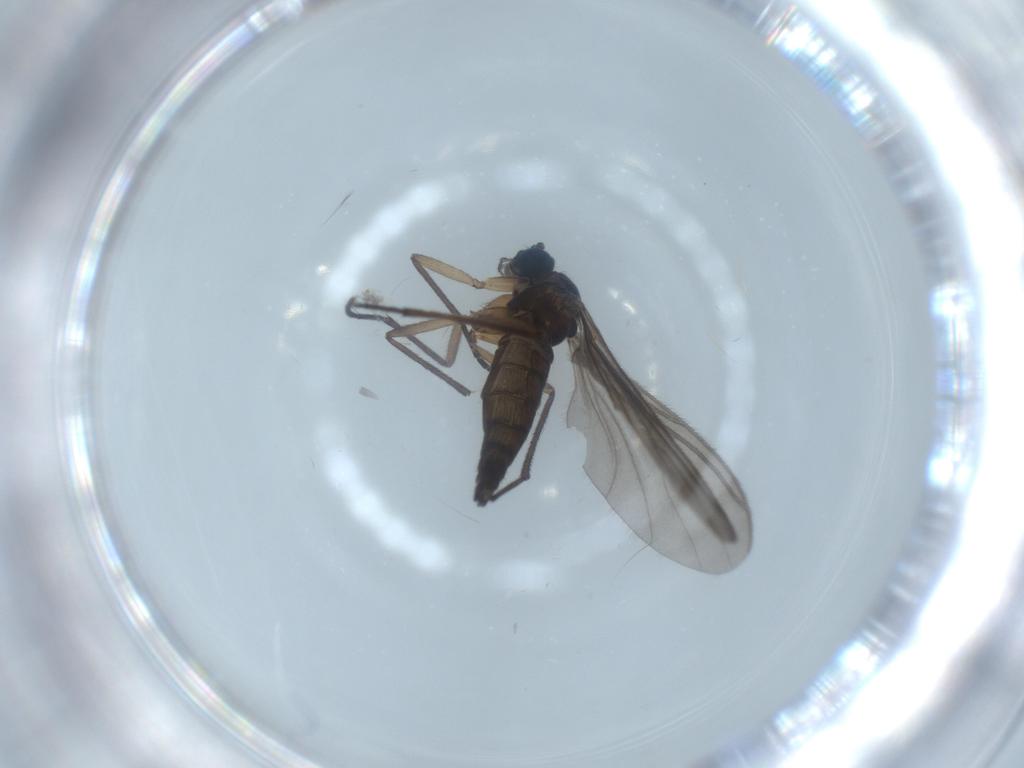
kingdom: Animalia
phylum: Arthropoda
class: Insecta
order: Diptera
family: Sciaridae
